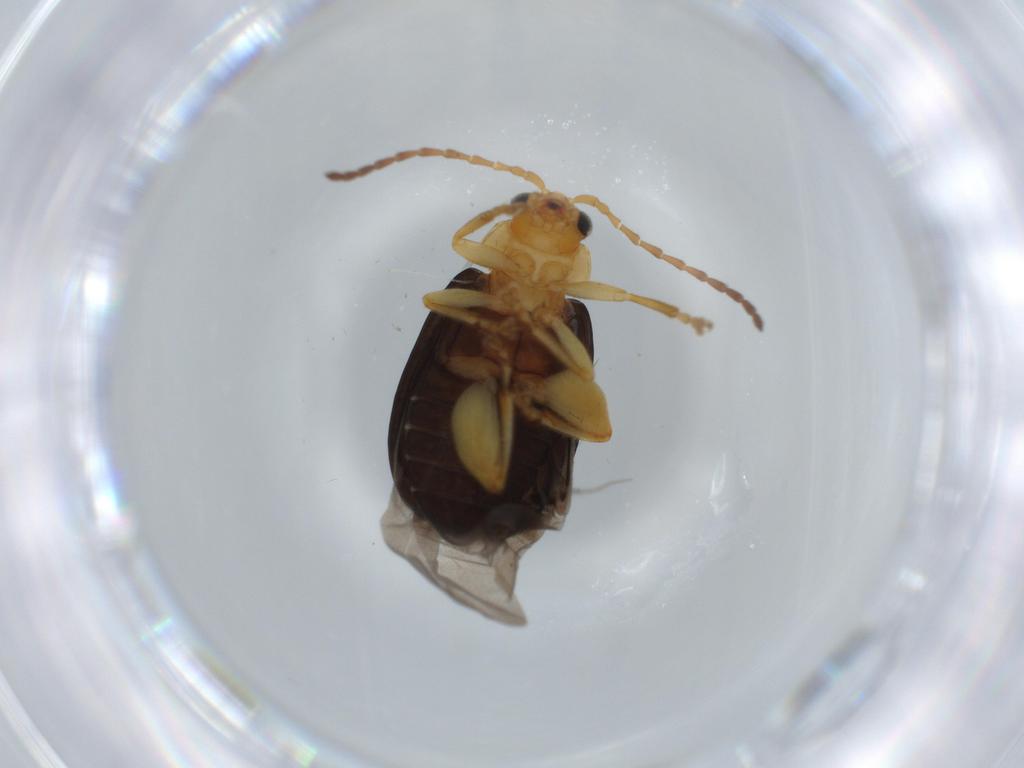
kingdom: Animalia
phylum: Arthropoda
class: Insecta
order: Coleoptera
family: Chrysomelidae
